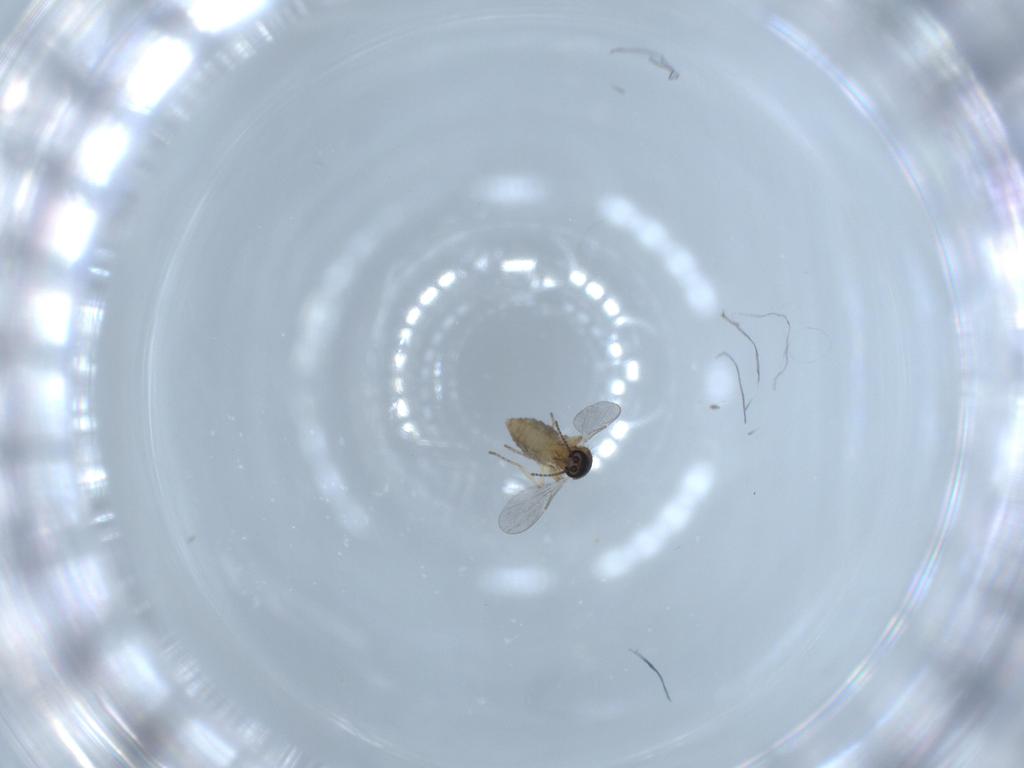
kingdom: Animalia
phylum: Arthropoda
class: Insecta
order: Diptera
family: Ceratopogonidae
